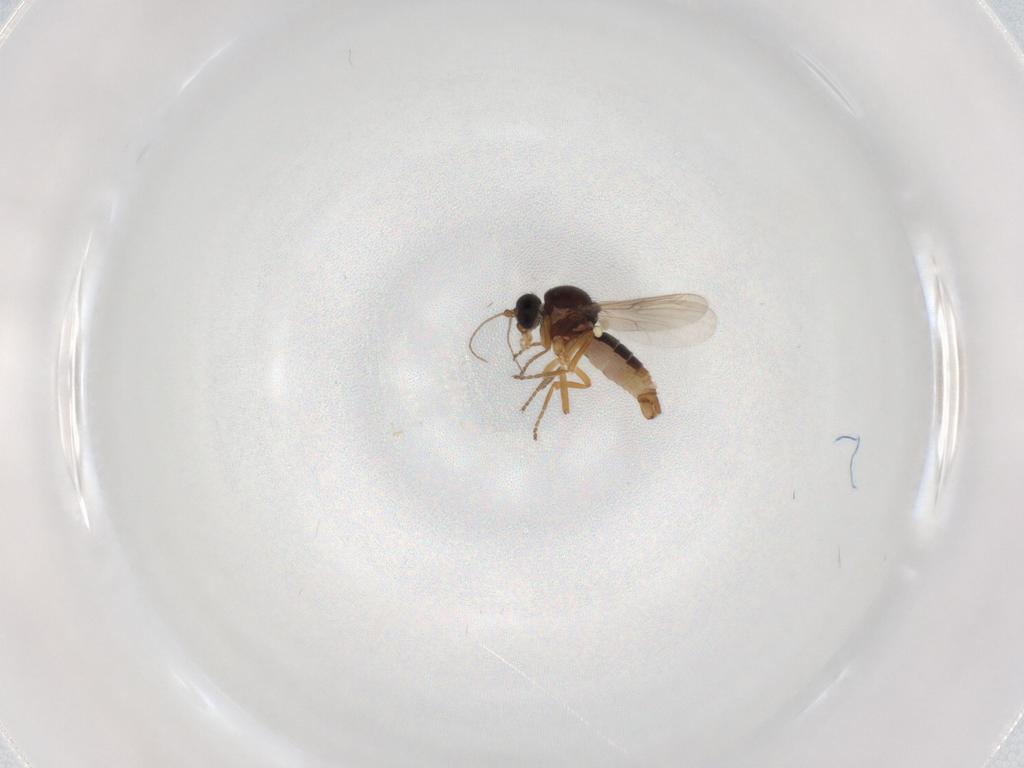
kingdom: Animalia
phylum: Arthropoda
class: Insecta
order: Diptera
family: Ceratopogonidae
